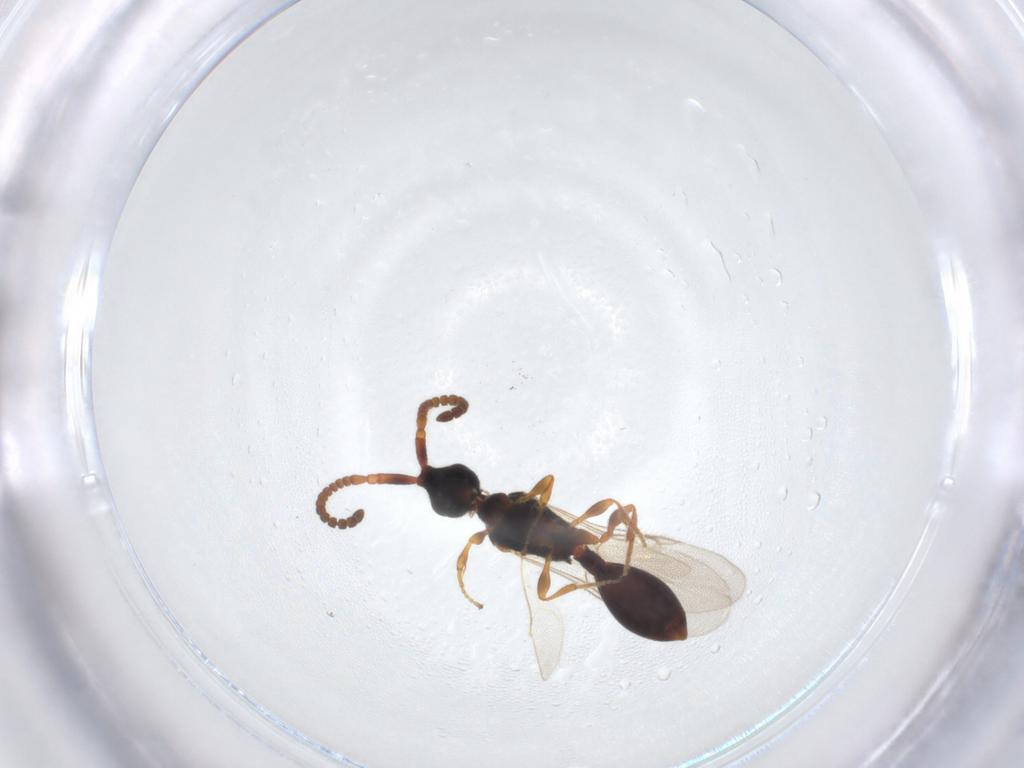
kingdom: Animalia
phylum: Arthropoda
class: Insecta
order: Hymenoptera
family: Diapriidae
